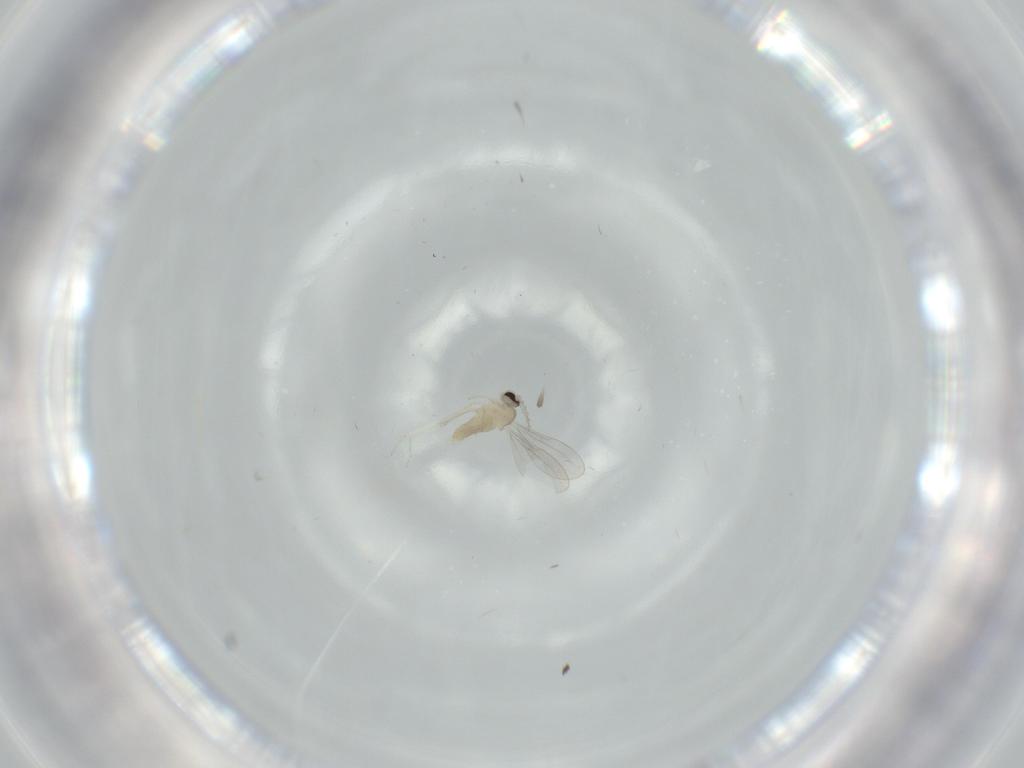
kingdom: Animalia
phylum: Arthropoda
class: Insecta
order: Diptera
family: Cecidomyiidae
